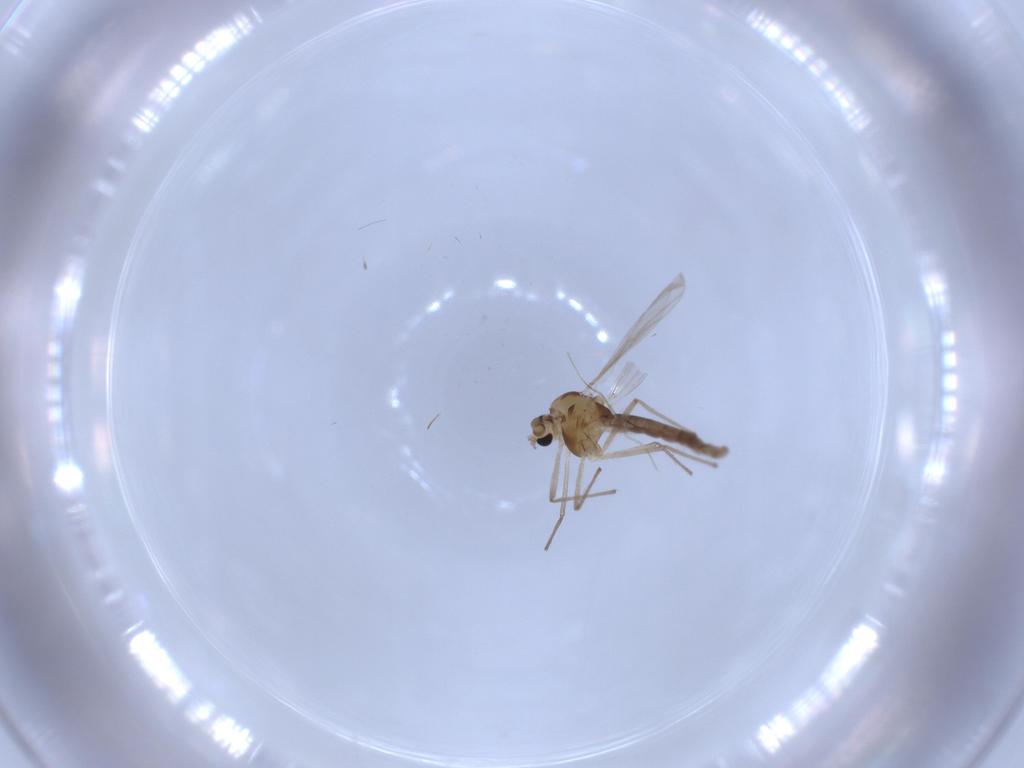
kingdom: Animalia
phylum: Arthropoda
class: Insecta
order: Diptera
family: Chironomidae
